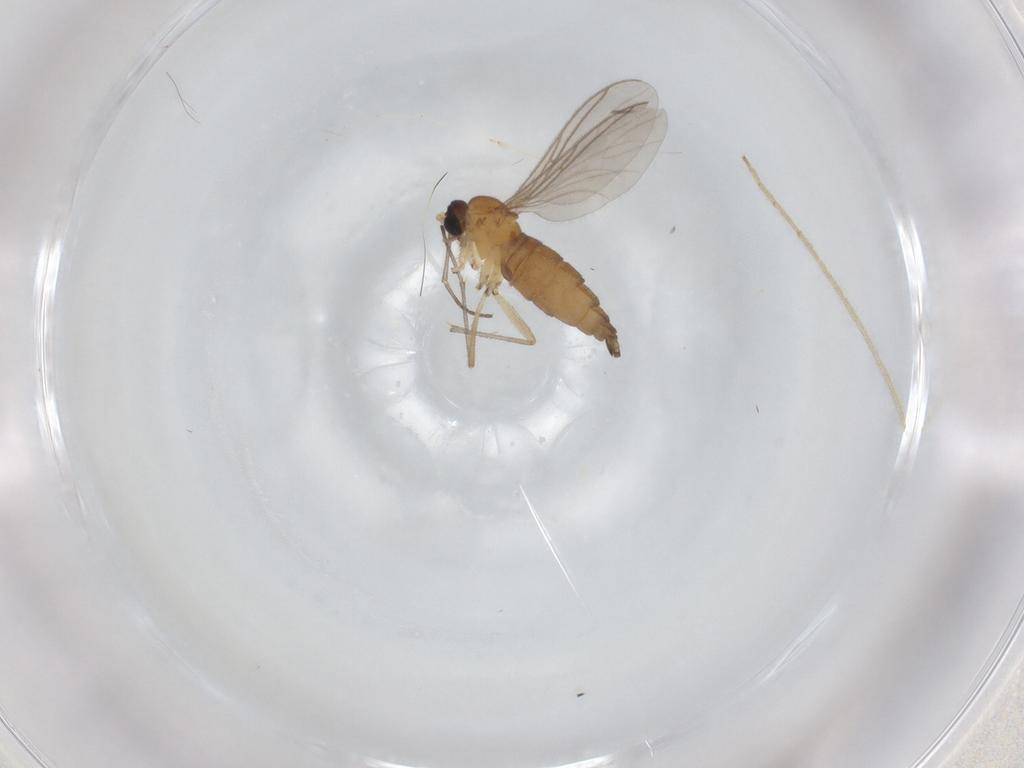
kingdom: Animalia
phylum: Arthropoda
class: Insecta
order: Diptera
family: Limoniidae
